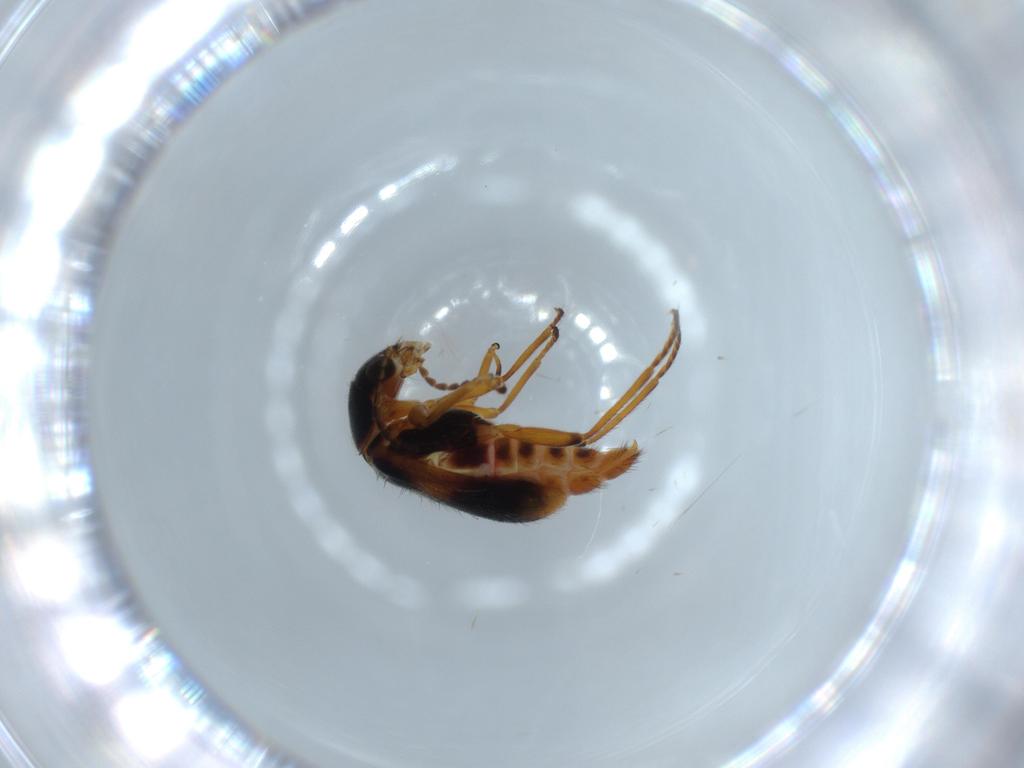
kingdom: Animalia
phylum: Arthropoda
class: Insecta
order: Coleoptera
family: Melyridae
